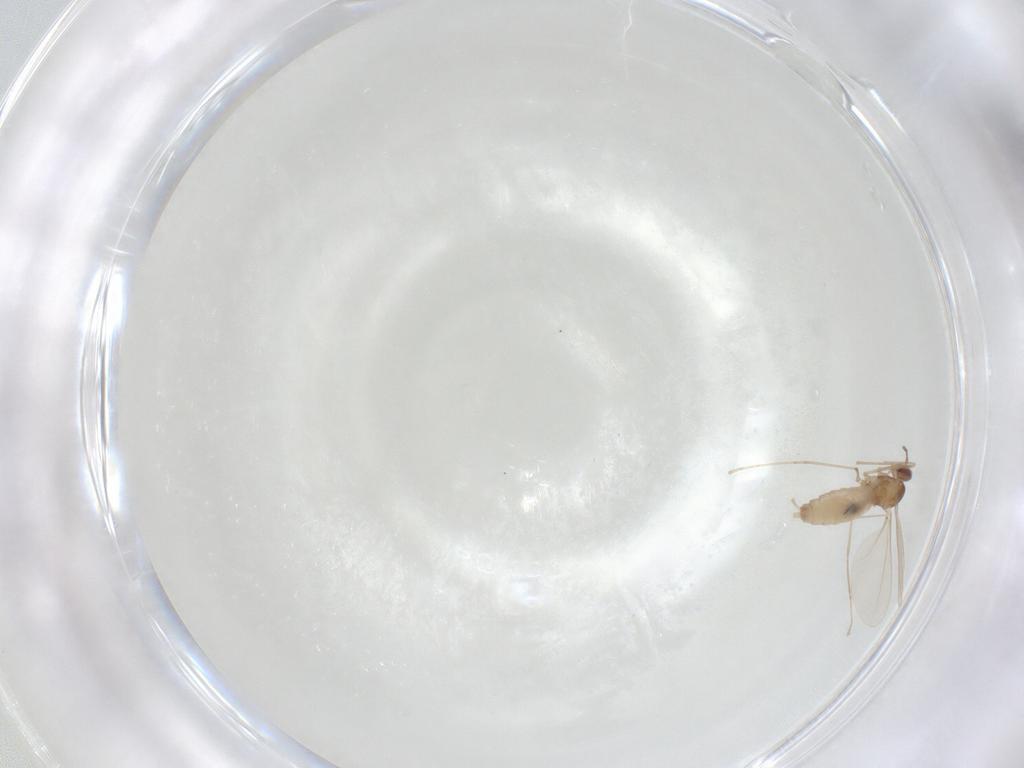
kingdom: Animalia
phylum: Arthropoda
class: Insecta
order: Diptera
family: Cecidomyiidae
